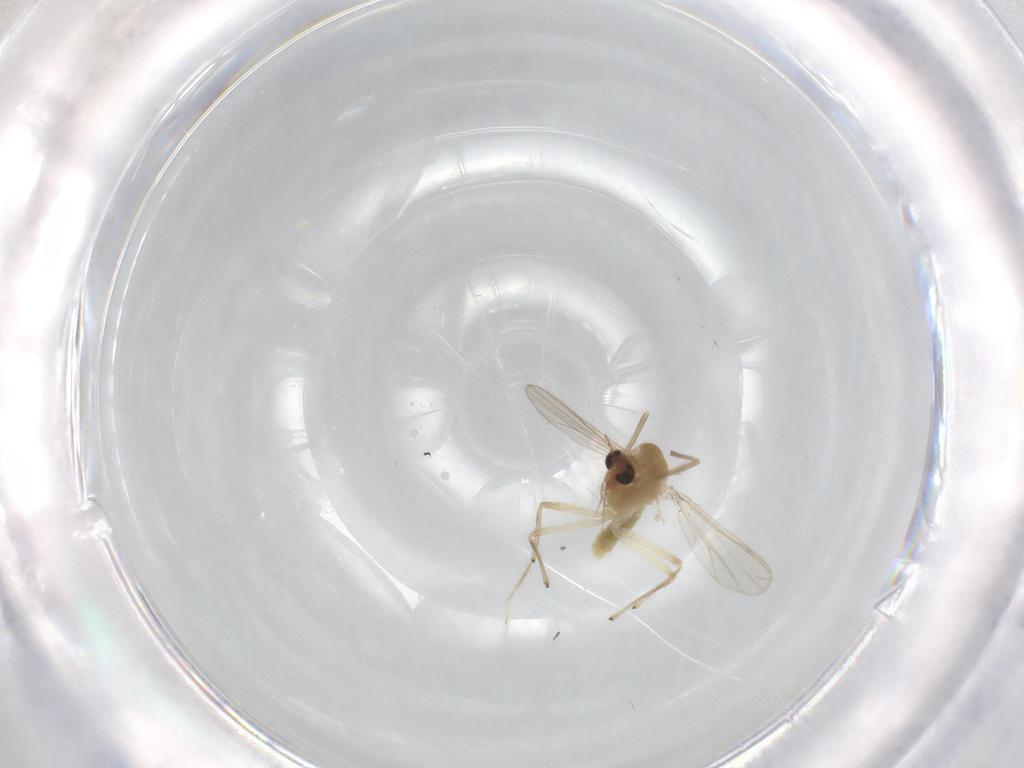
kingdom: Animalia
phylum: Arthropoda
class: Insecta
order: Diptera
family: Chironomidae
